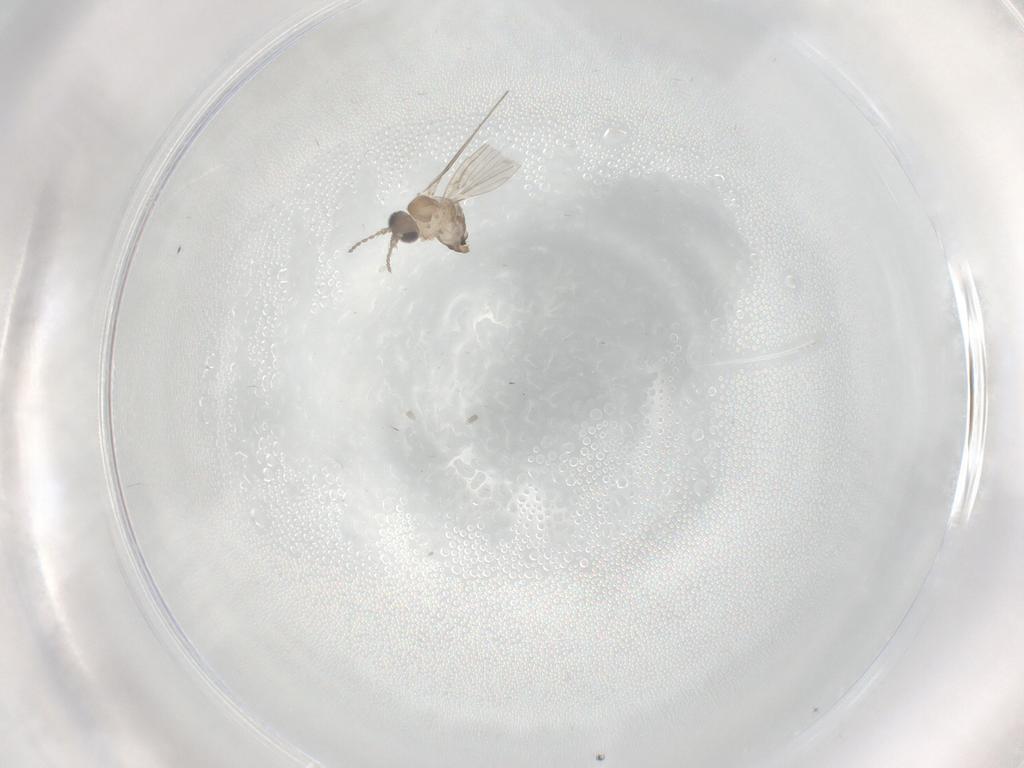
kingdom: Animalia
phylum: Arthropoda
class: Insecta
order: Diptera
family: Psychodidae
